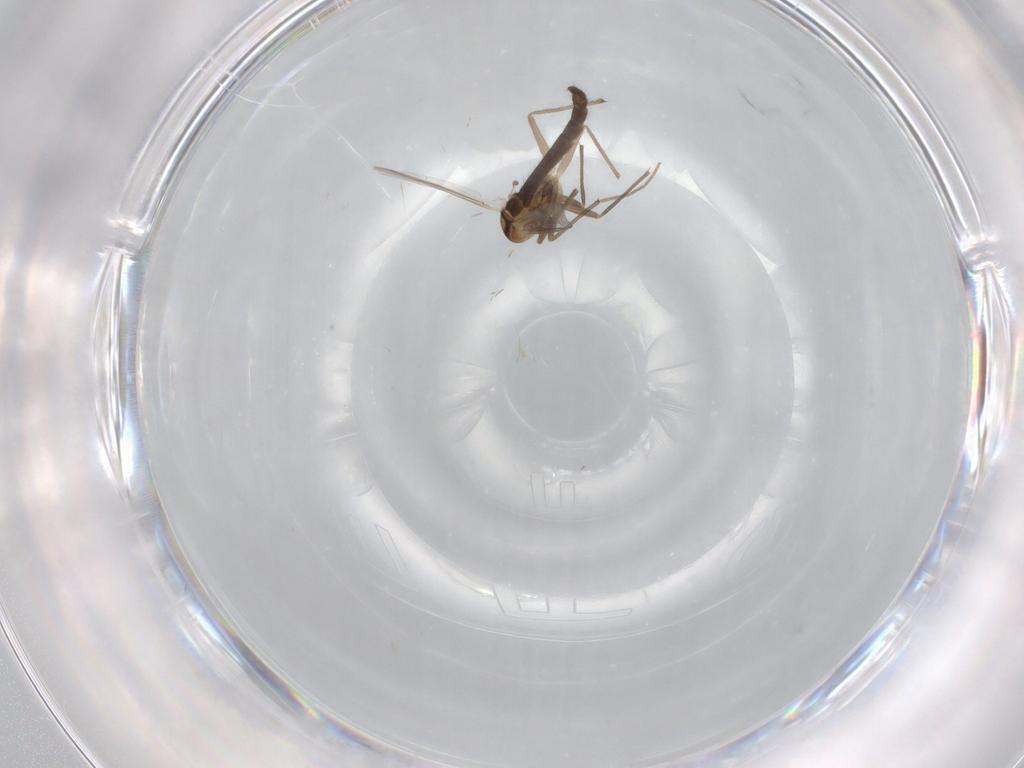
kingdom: Animalia
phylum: Arthropoda
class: Insecta
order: Diptera
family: Chironomidae
